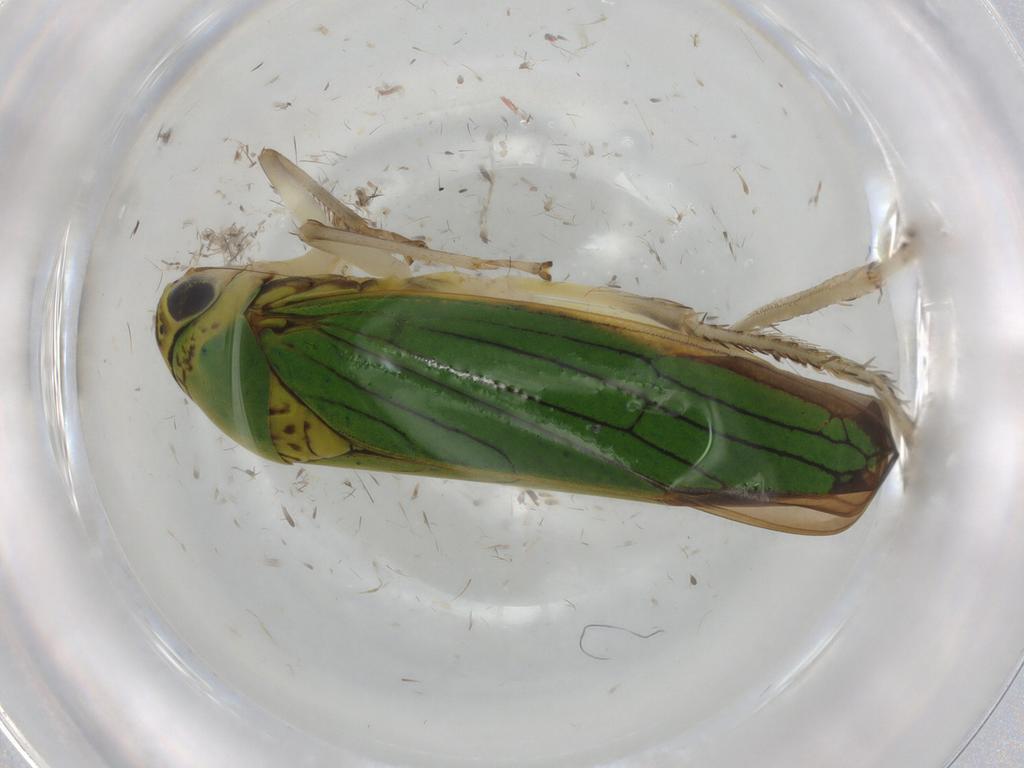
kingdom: Animalia
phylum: Arthropoda
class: Insecta
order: Hemiptera
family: Cicadellidae
